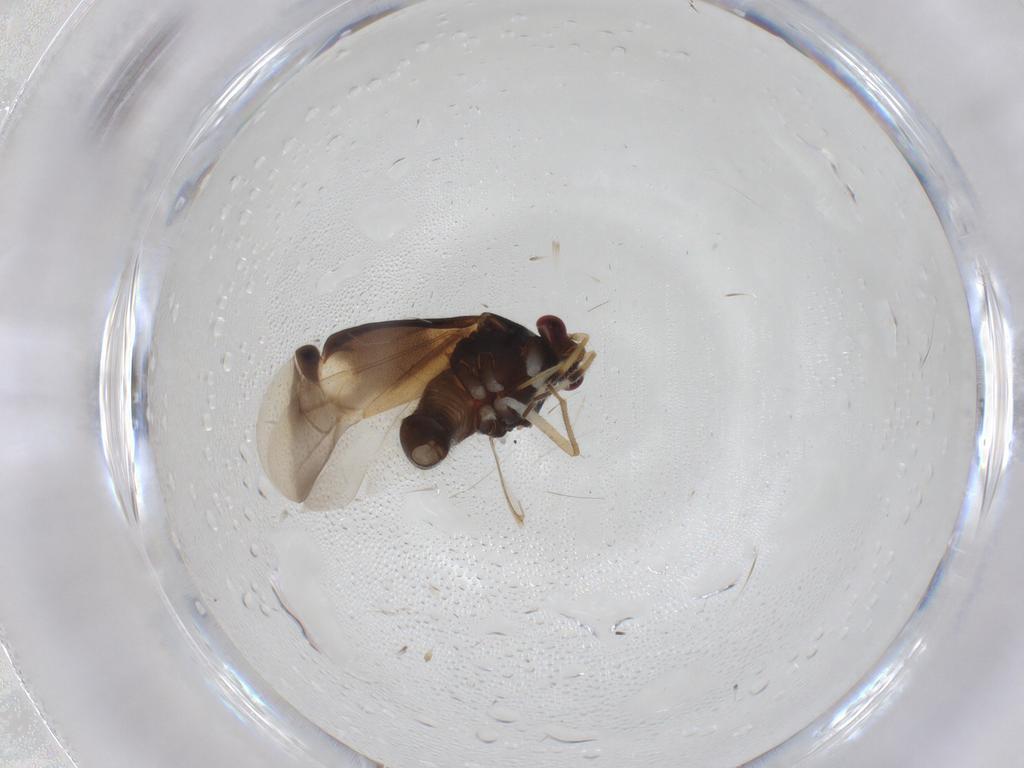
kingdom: Animalia
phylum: Arthropoda
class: Insecta
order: Hemiptera
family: Miridae
